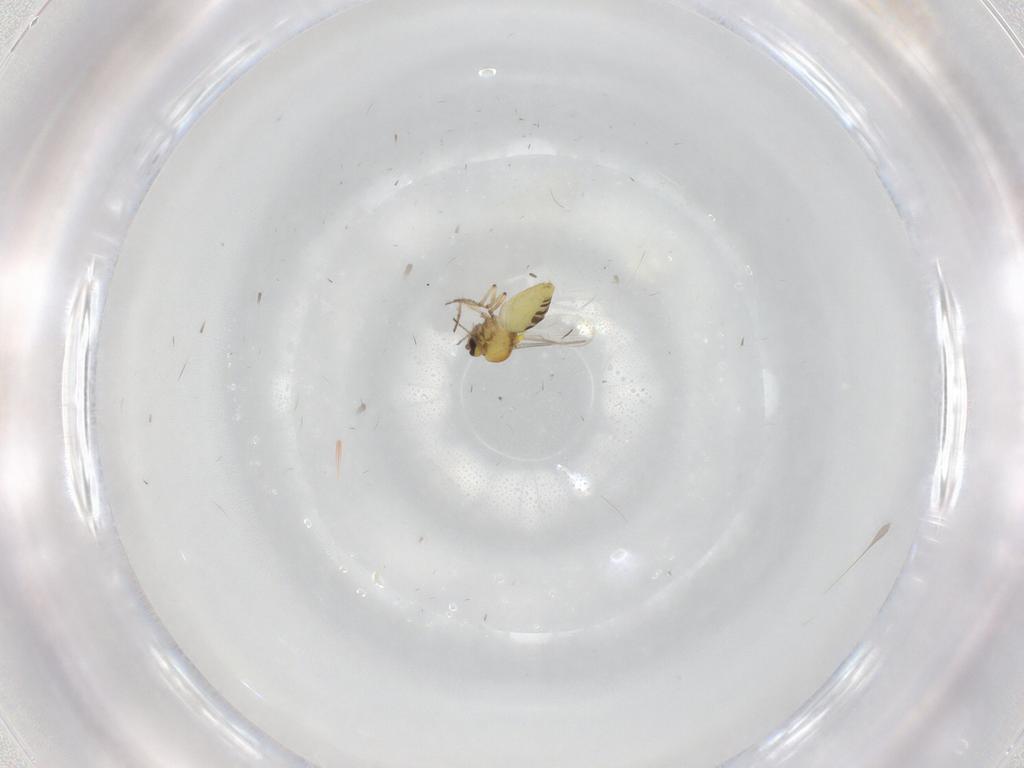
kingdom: Animalia
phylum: Arthropoda
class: Insecta
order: Diptera
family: Ceratopogonidae
